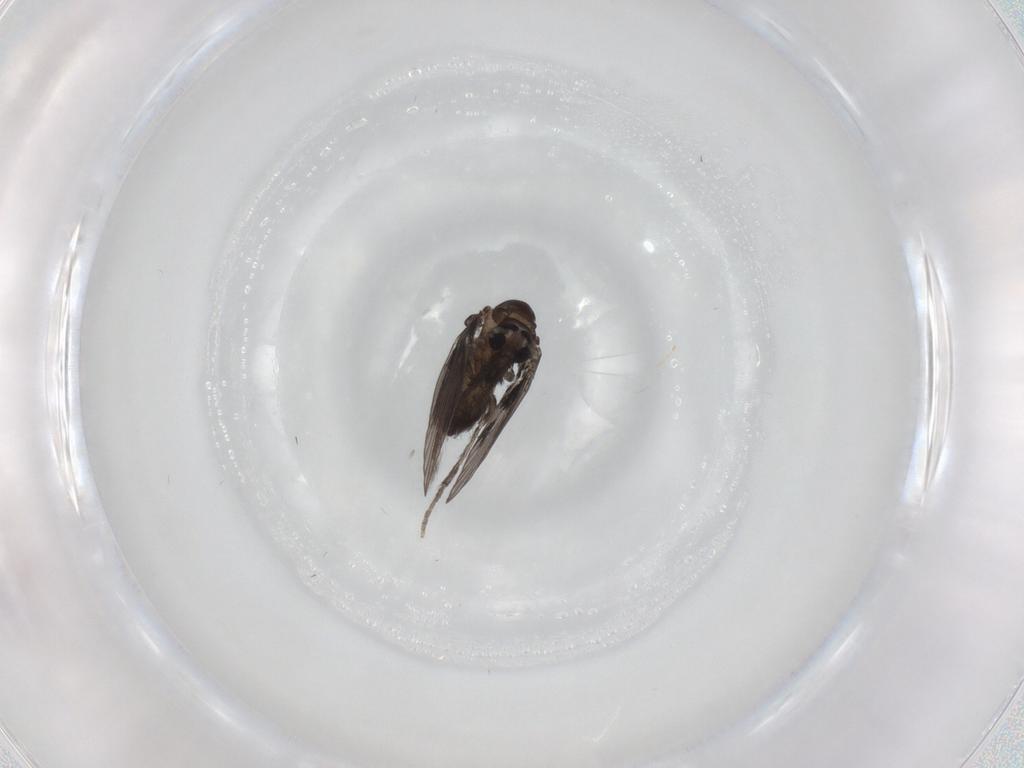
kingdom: Animalia
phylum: Arthropoda
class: Insecta
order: Diptera
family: Psychodidae
